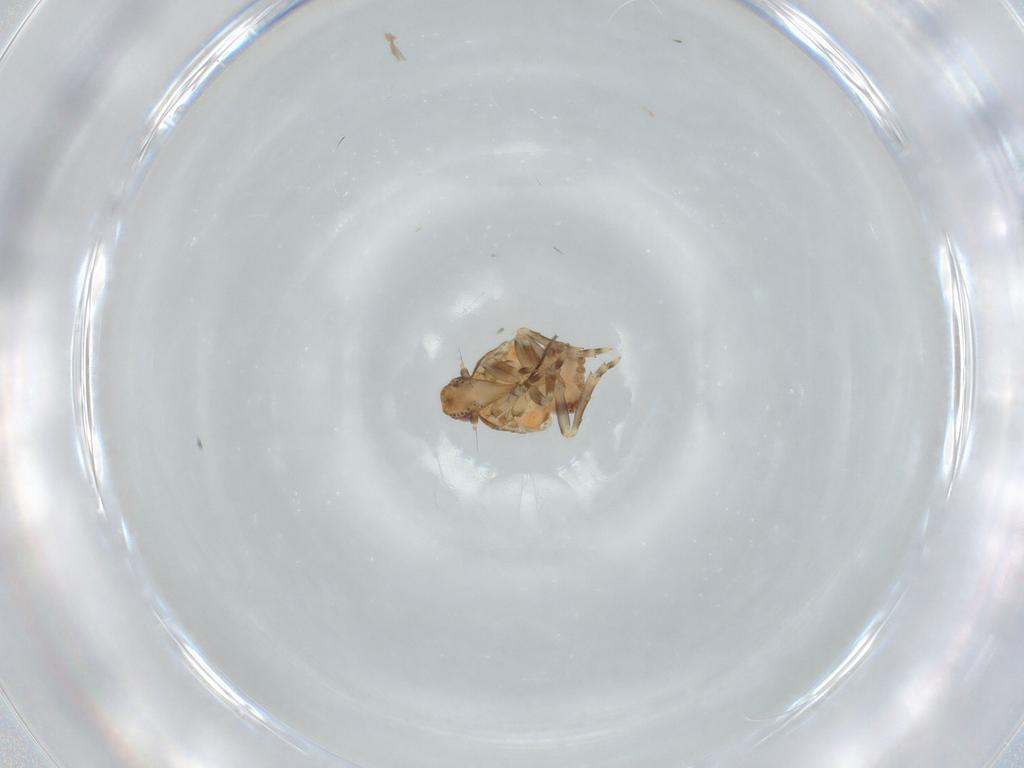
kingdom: Animalia
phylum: Arthropoda
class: Insecta
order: Hemiptera
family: Flatidae
